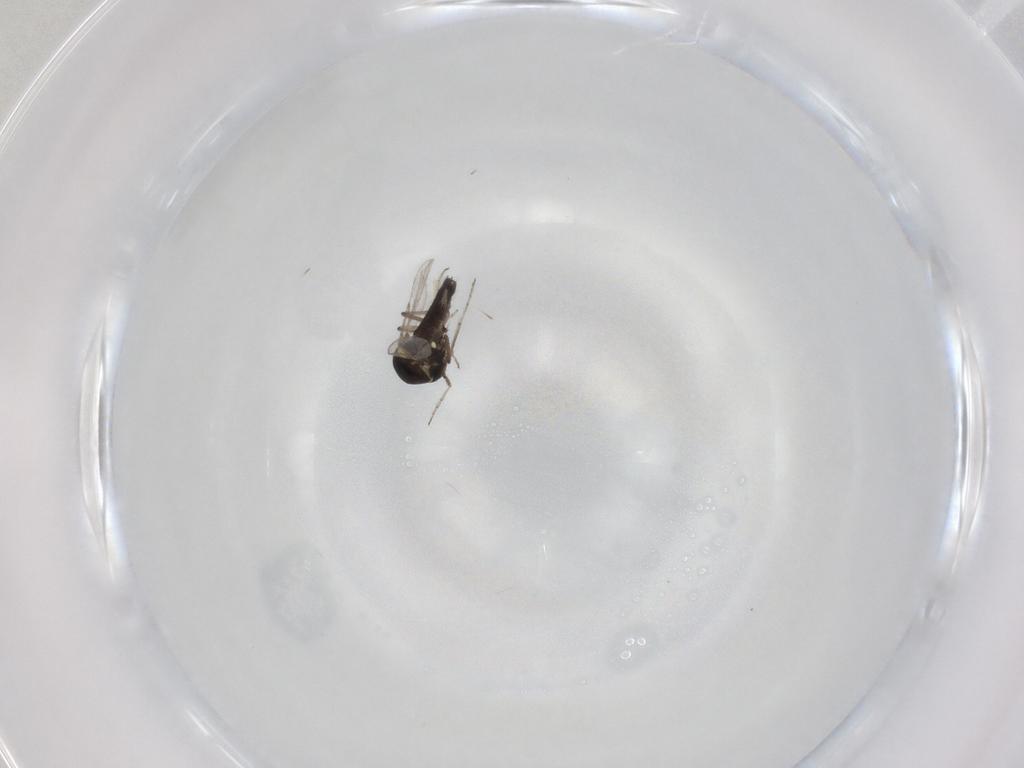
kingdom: Animalia
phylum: Arthropoda
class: Insecta
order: Diptera
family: Ceratopogonidae
